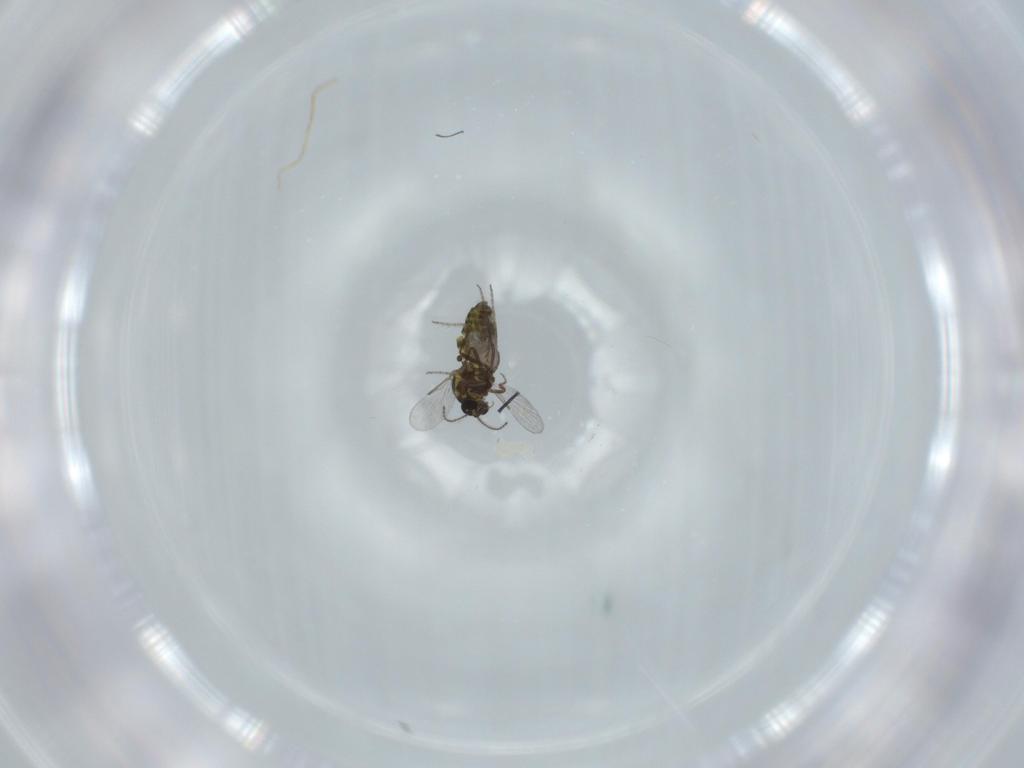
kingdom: Animalia
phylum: Arthropoda
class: Insecta
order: Diptera
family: Ceratopogonidae
